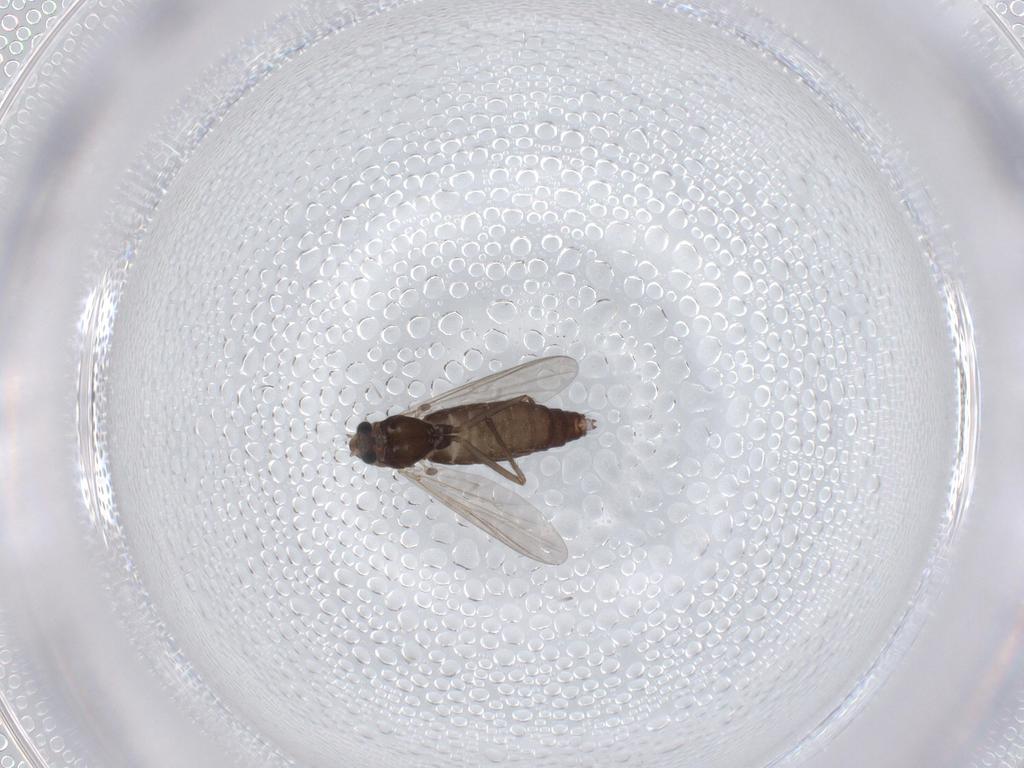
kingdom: Animalia
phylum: Arthropoda
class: Insecta
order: Diptera
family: Chironomidae
